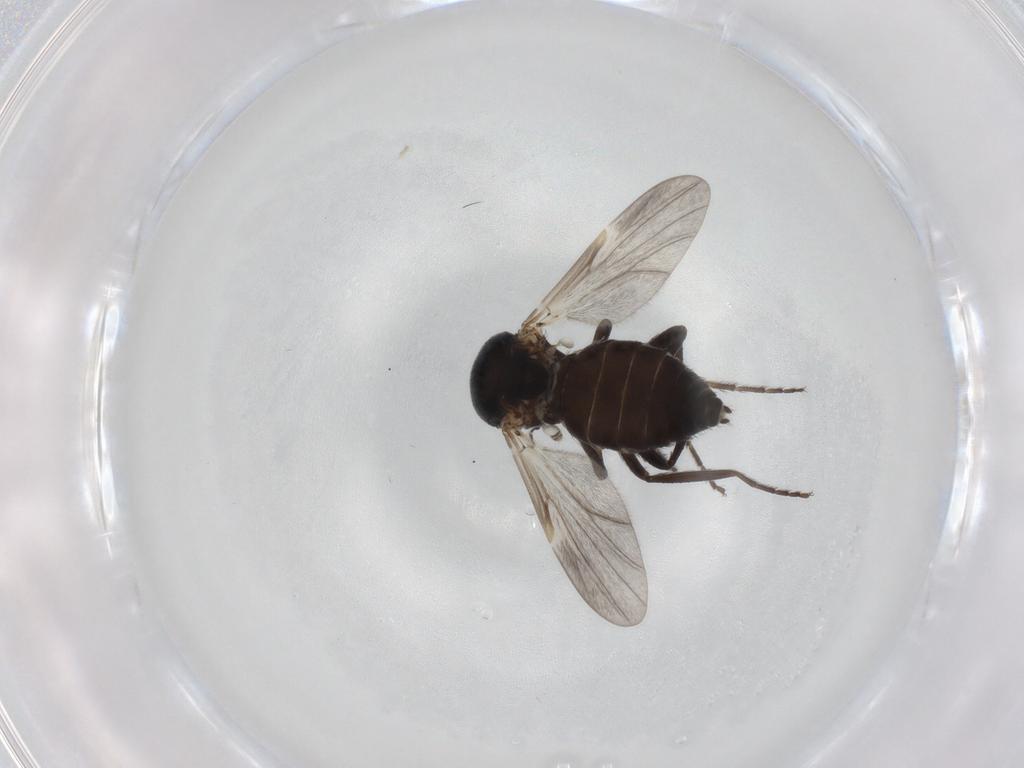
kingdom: Animalia
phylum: Arthropoda
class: Insecta
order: Diptera
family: Ceratopogonidae
